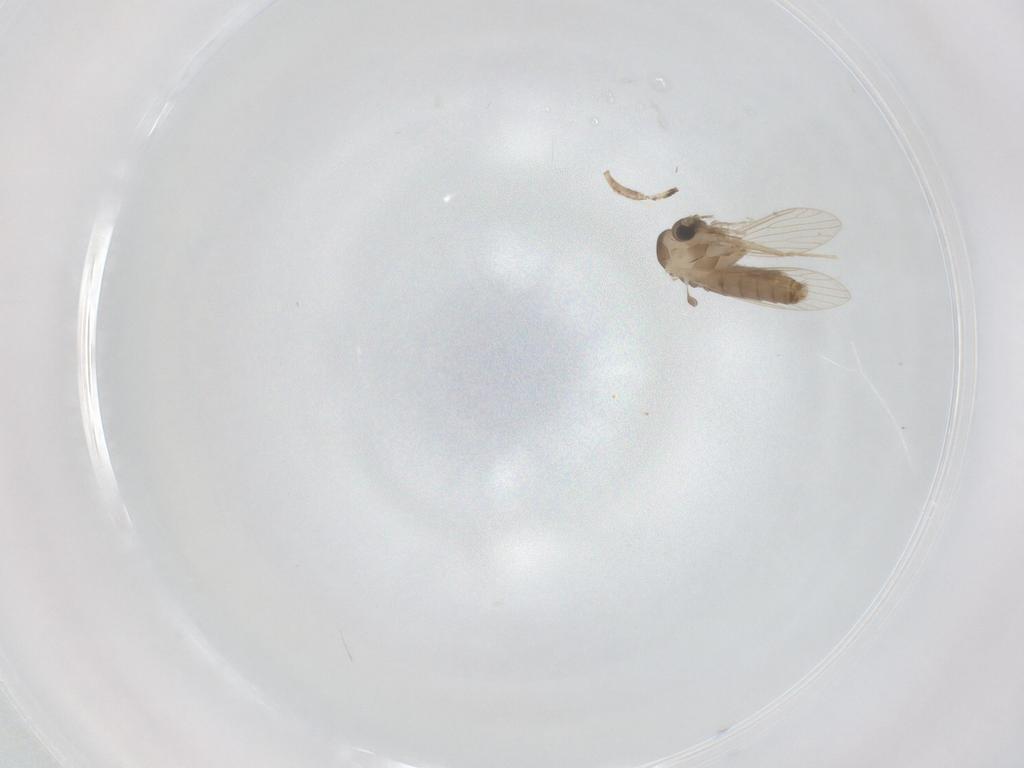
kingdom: Animalia
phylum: Arthropoda
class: Insecta
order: Diptera
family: Psychodidae
